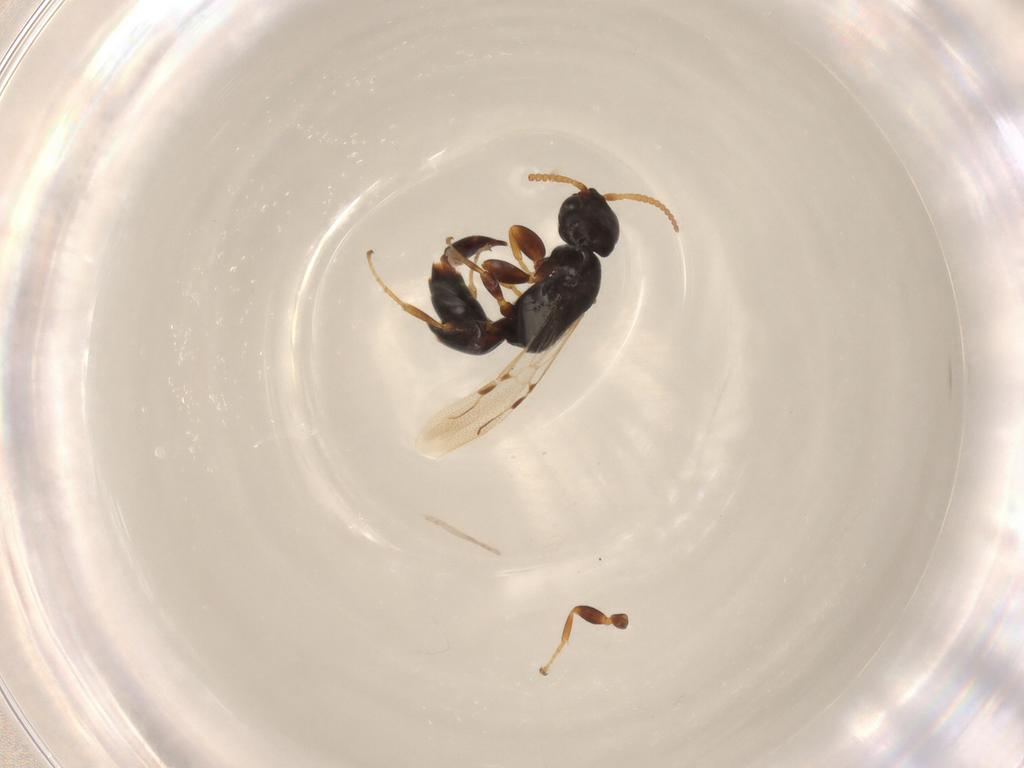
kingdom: Animalia
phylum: Arthropoda
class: Insecta
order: Hymenoptera
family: Bethylidae
